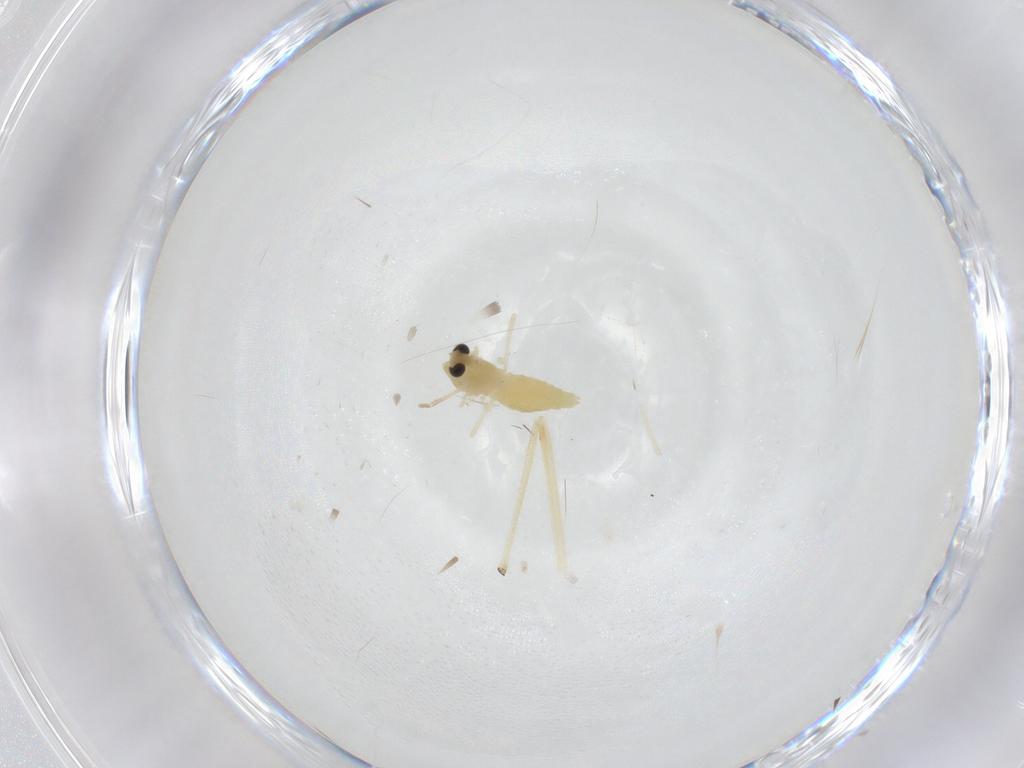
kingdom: Animalia
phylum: Arthropoda
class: Insecta
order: Diptera
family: Chironomidae
